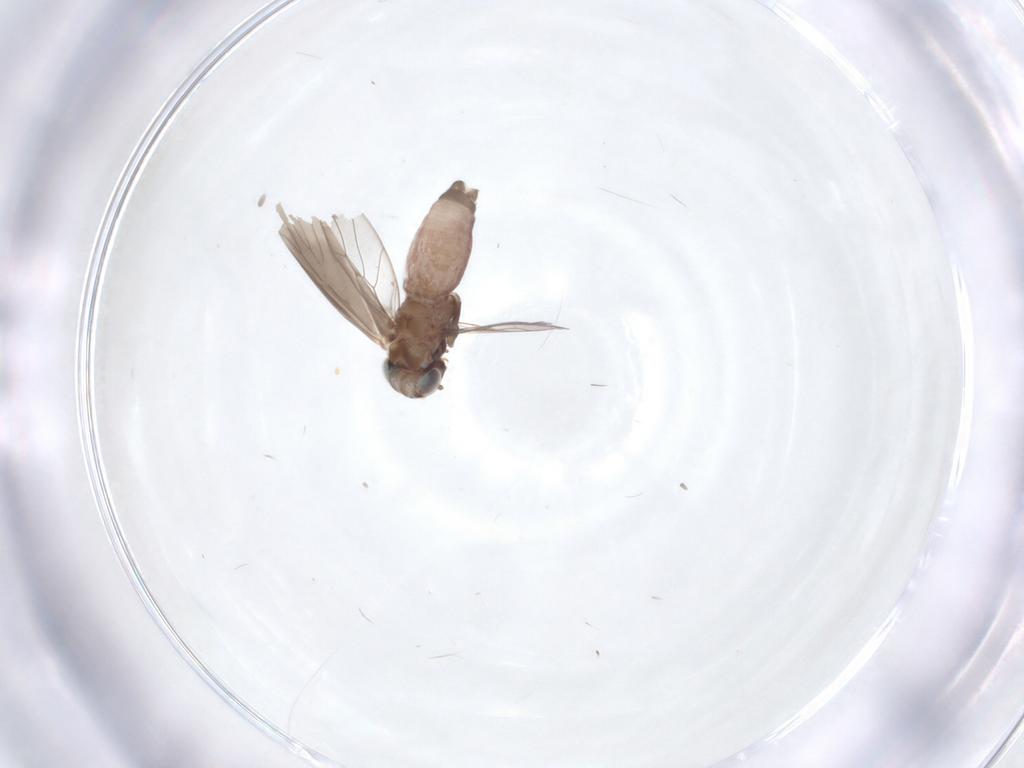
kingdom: Animalia
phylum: Arthropoda
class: Insecta
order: Psocodea
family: Amphientomidae
